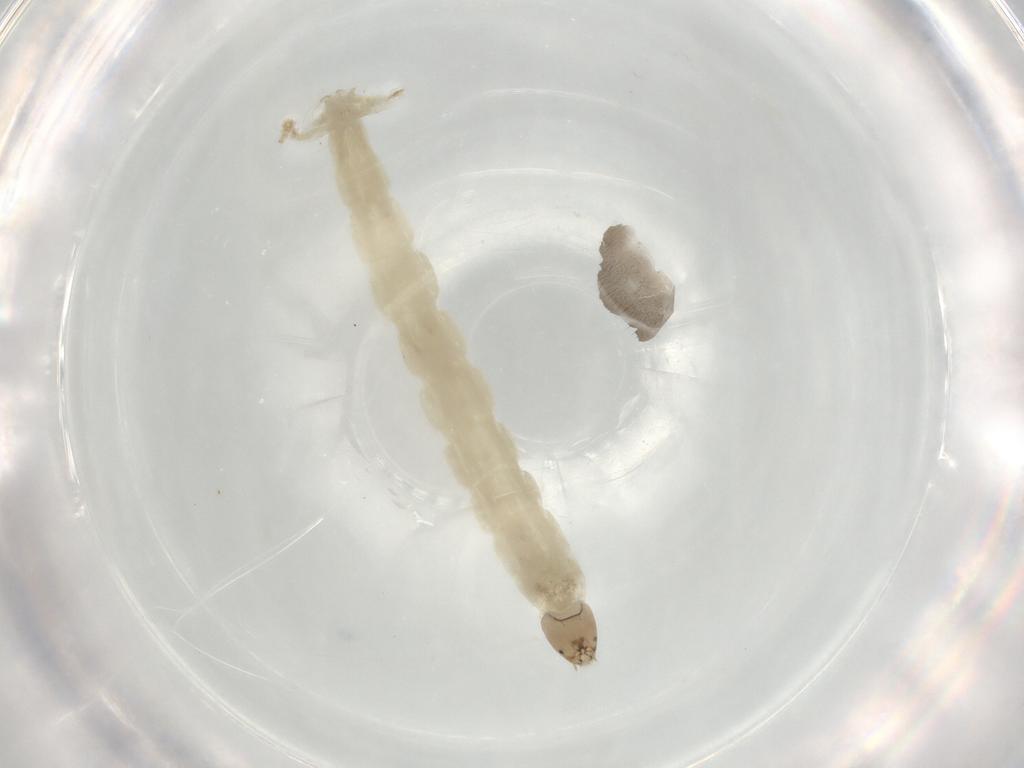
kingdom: Animalia
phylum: Arthropoda
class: Insecta
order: Diptera
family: Chironomidae
